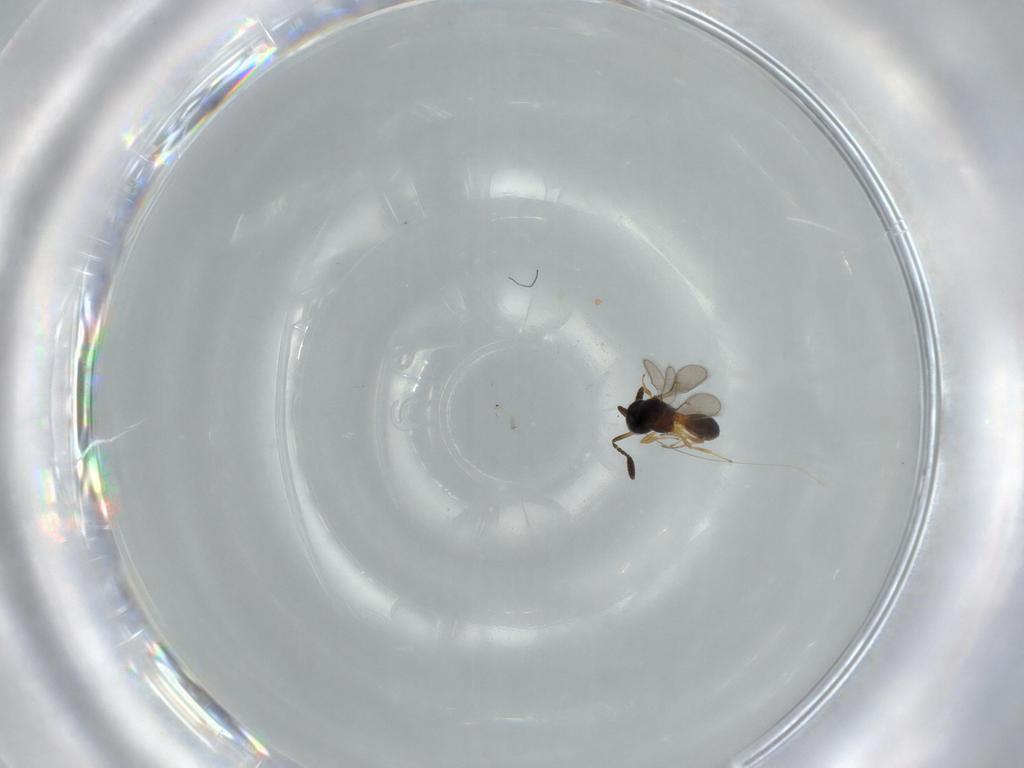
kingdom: Animalia
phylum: Arthropoda
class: Insecta
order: Hymenoptera
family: Scelionidae
